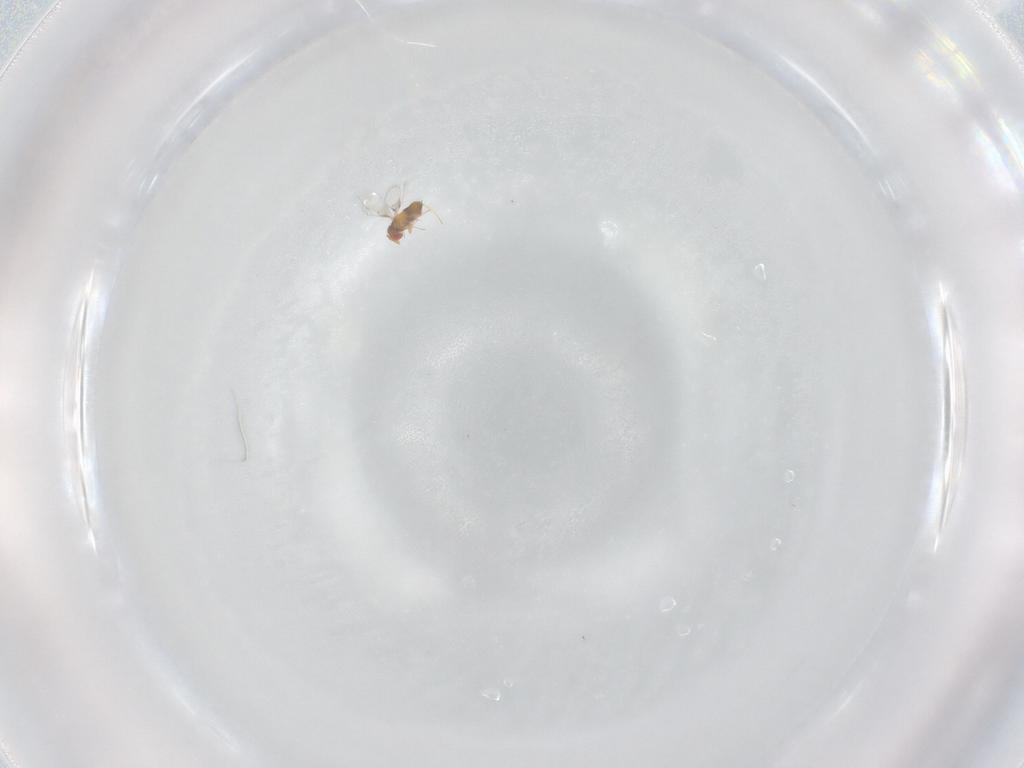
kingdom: Animalia
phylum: Arthropoda
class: Insecta
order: Hymenoptera
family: Trichogrammatidae
